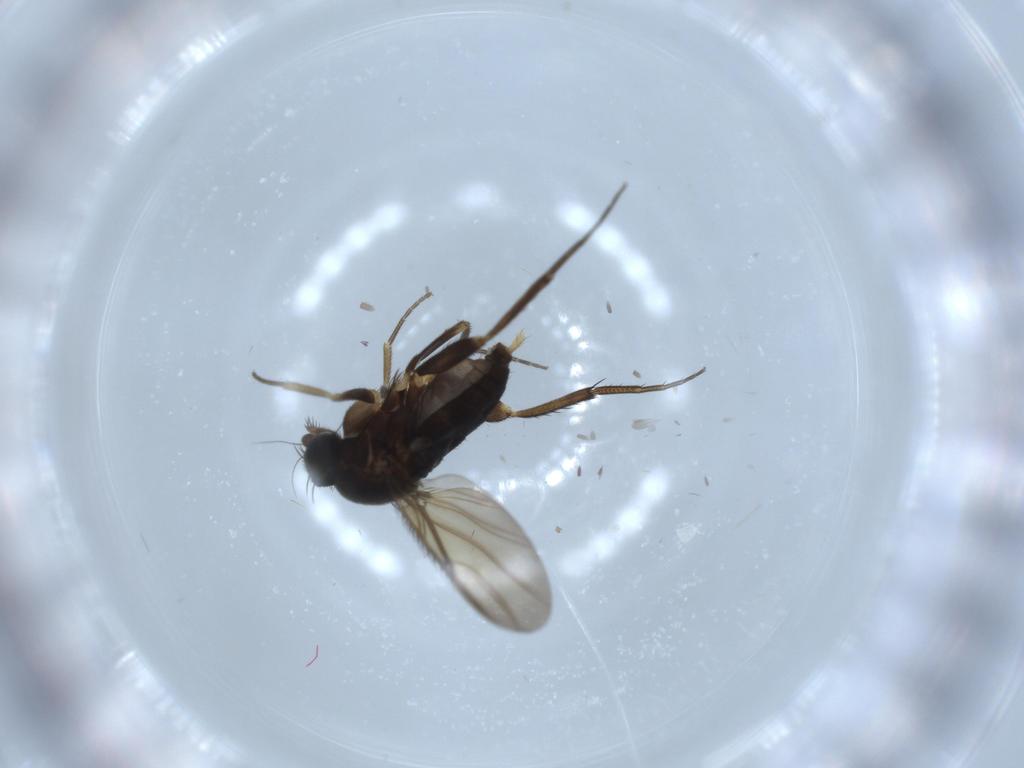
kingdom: Animalia
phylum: Arthropoda
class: Insecta
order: Diptera
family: Phoridae
